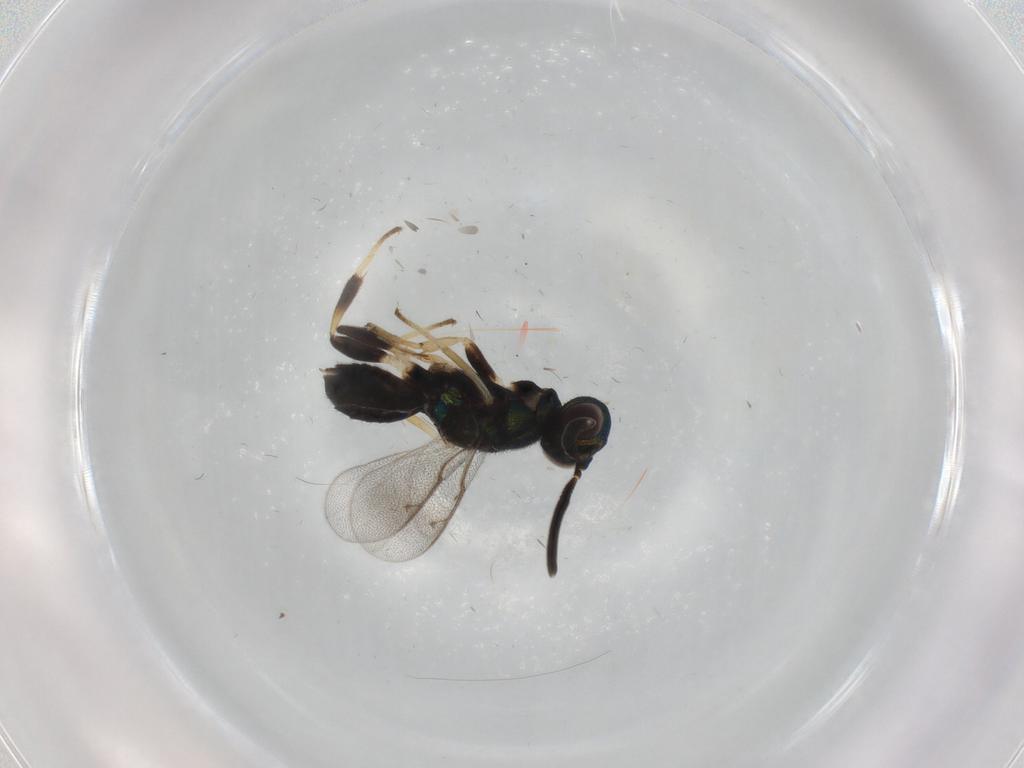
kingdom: Animalia
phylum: Arthropoda
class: Insecta
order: Hymenoptera
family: Eupelmidae
